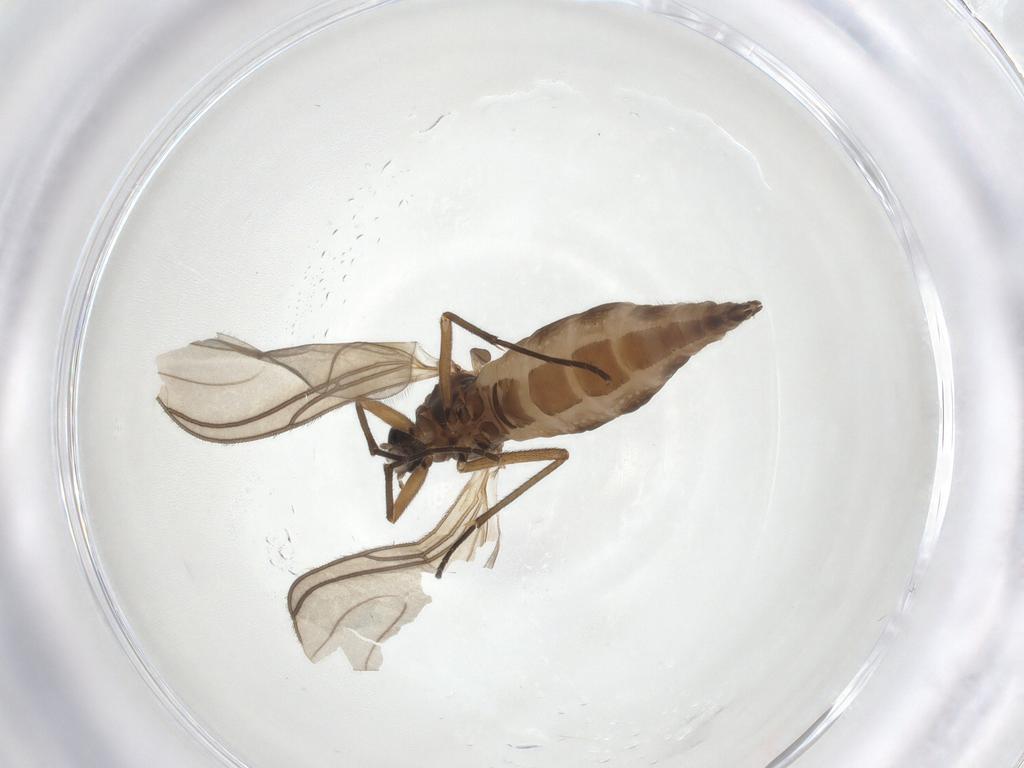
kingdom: Animalia
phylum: Arthropoda
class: Insecta
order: Diptera
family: Sciaridae
